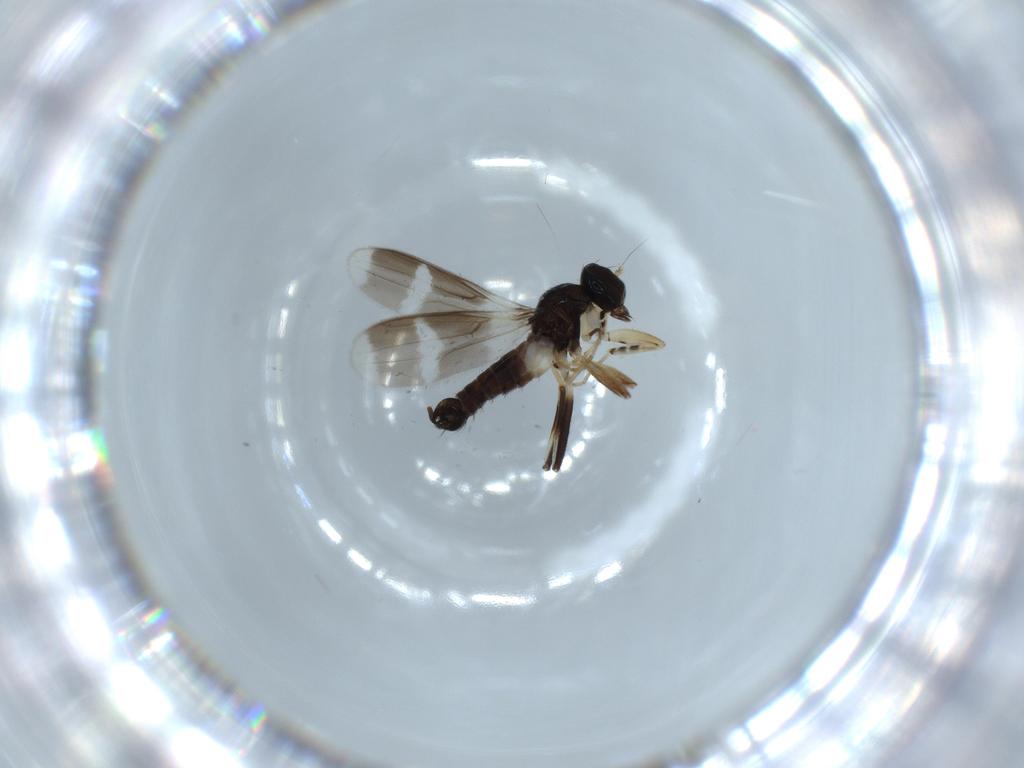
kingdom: Animalia
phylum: Arthropoda
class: Insecta
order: Diptera
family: Hybotidae
